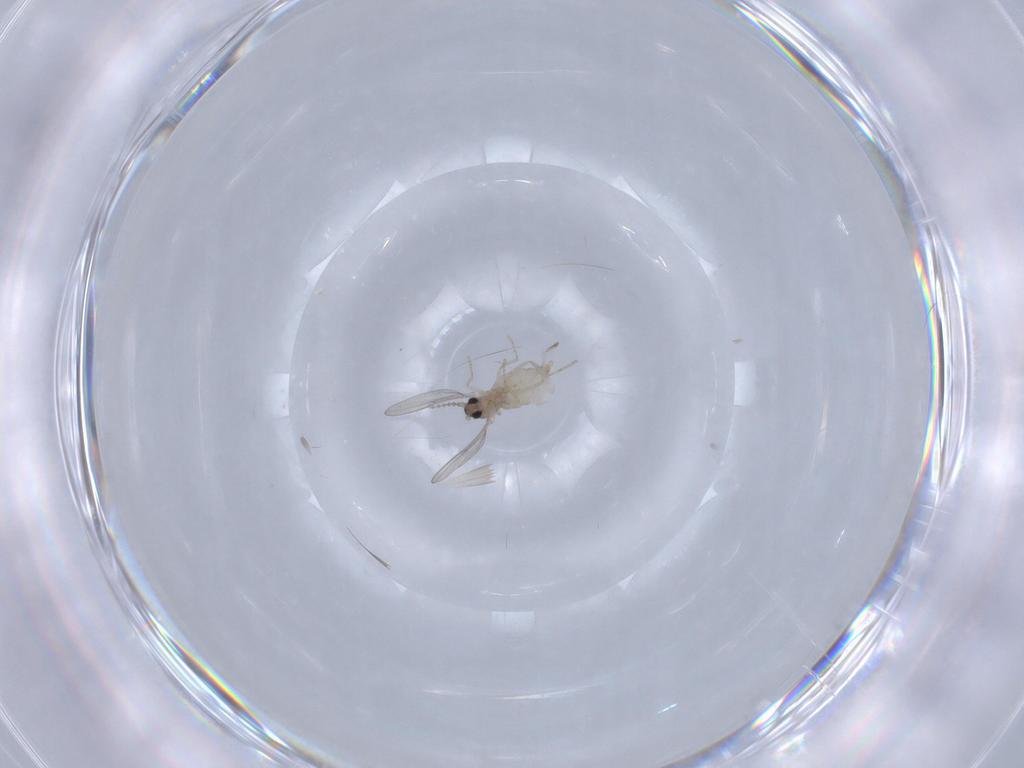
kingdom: Animalia
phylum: Arthropoda
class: Insecta
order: Diptera
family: Cecidomyiidae
